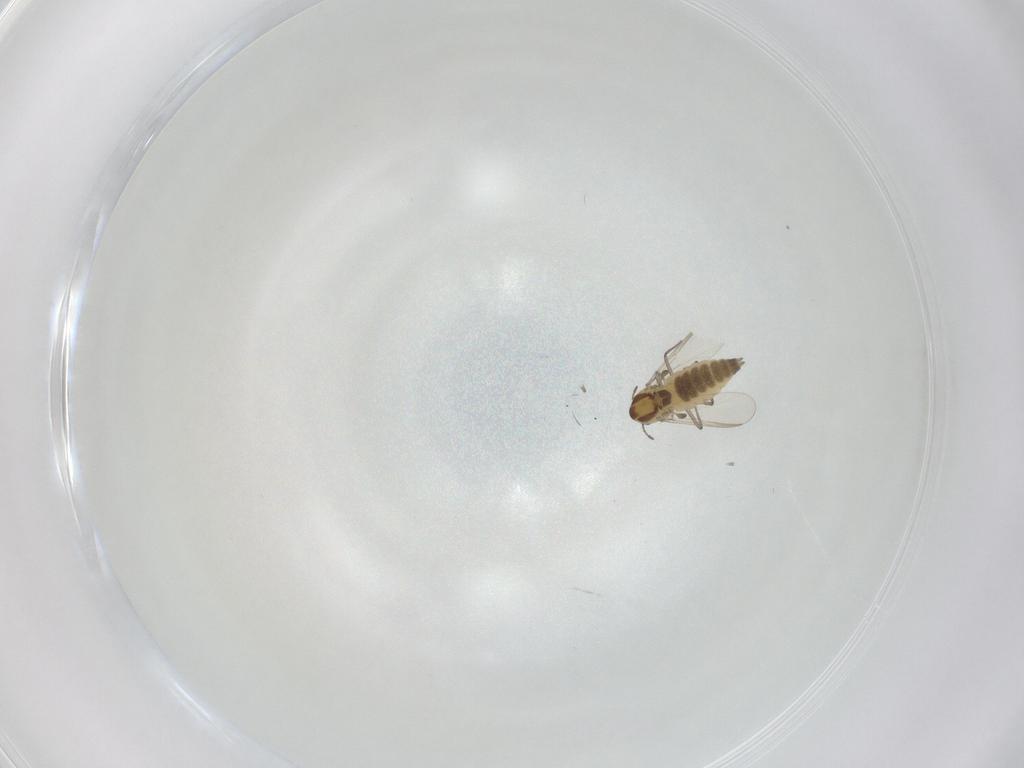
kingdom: Animalia
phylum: Arthropoda
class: Insecta
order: Diptera
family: Chironomidae
